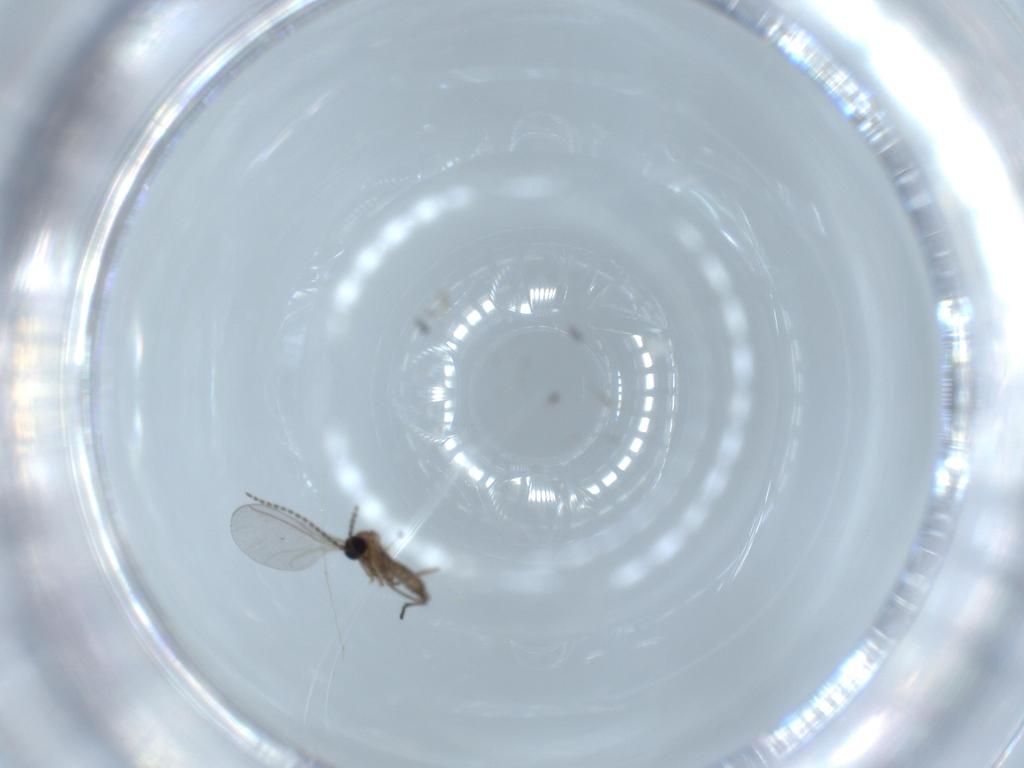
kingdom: Animalia
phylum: Arthropoda
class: Insecta
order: Diptera
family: Sciaridae
